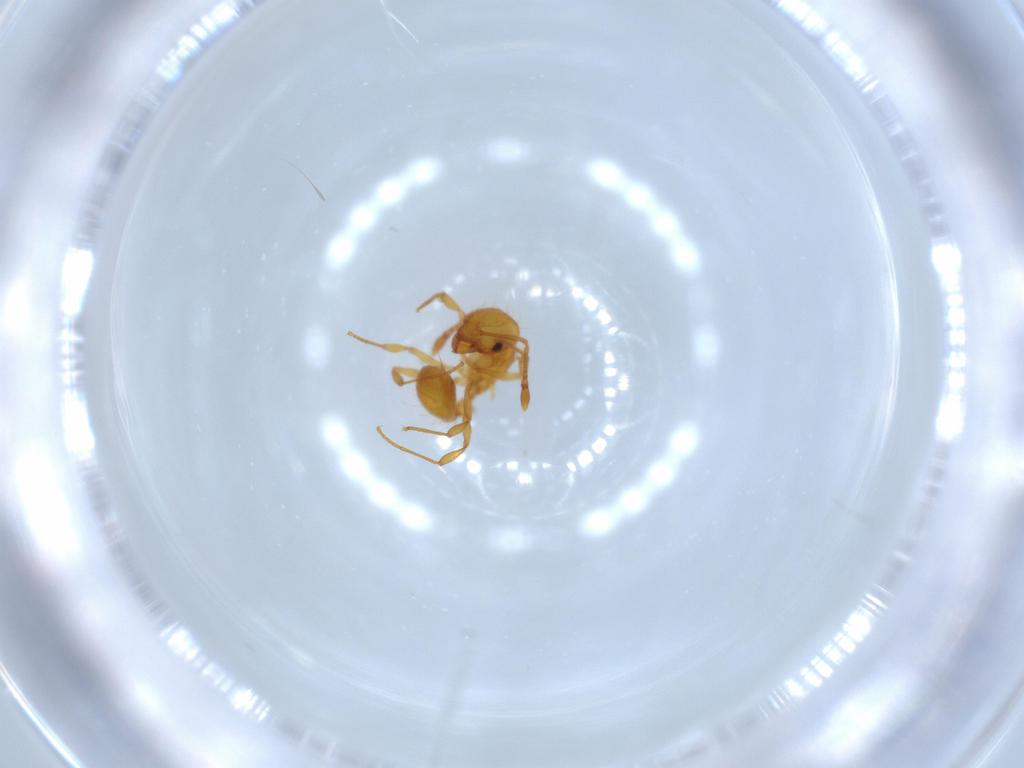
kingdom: Animalia
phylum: Arthropoda
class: Insecta
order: Hymenoptera
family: Formicidae
